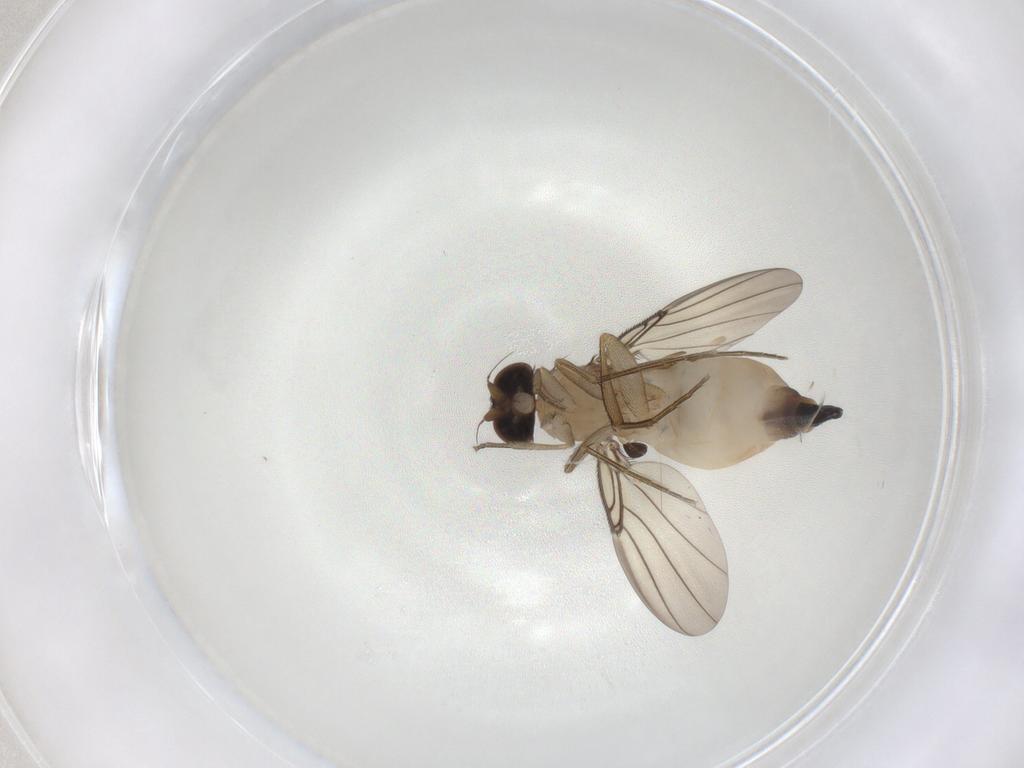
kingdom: Animalia
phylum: Arthropoda
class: Insecta
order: Diptera
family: Phoridae
